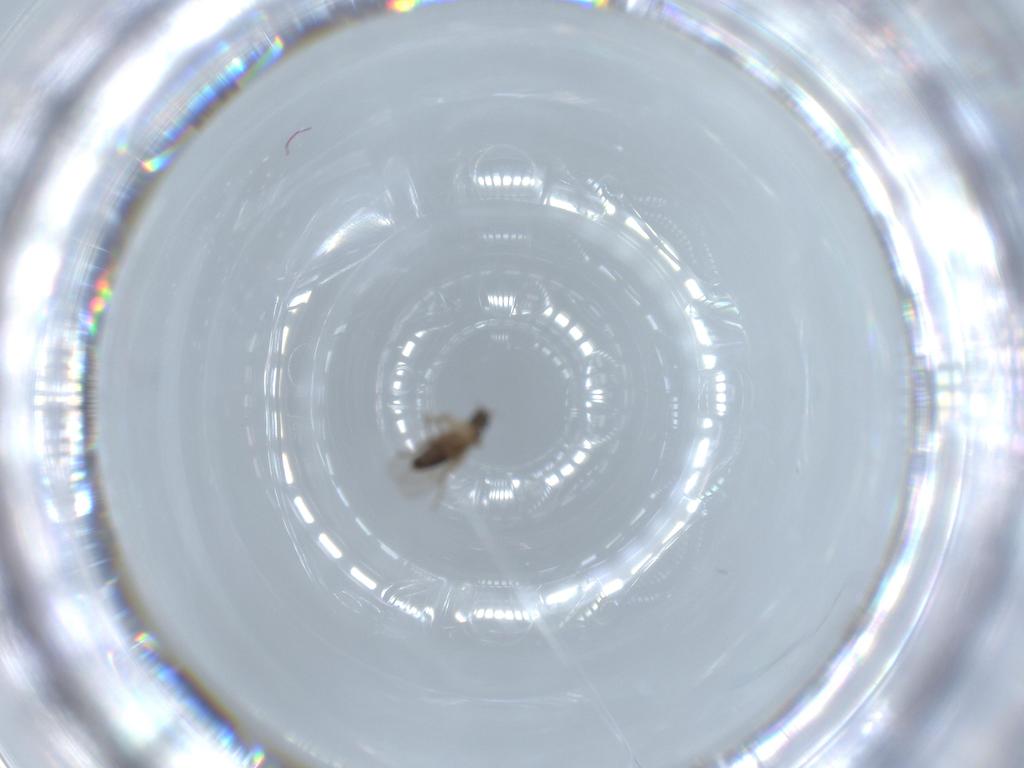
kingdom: Animalia
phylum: Arthropoda
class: Insecta
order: Diptera
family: Phoridae
